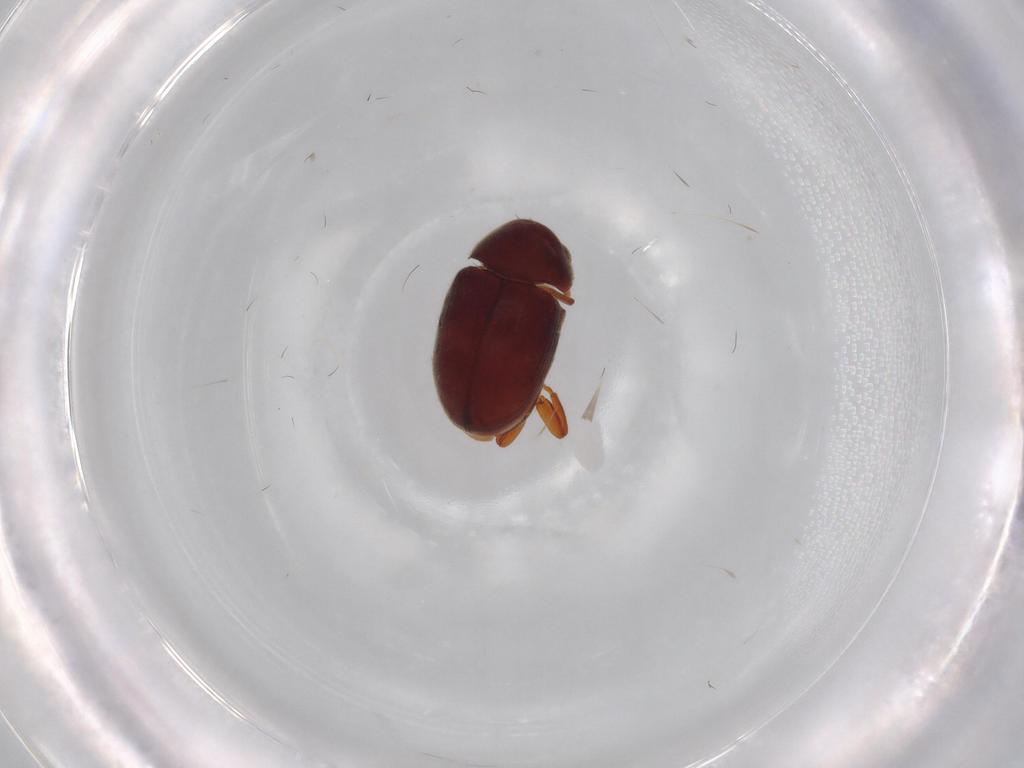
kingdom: Animalia
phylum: Arthropoda
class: Insecta
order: Coleoptera
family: Ptinidae
